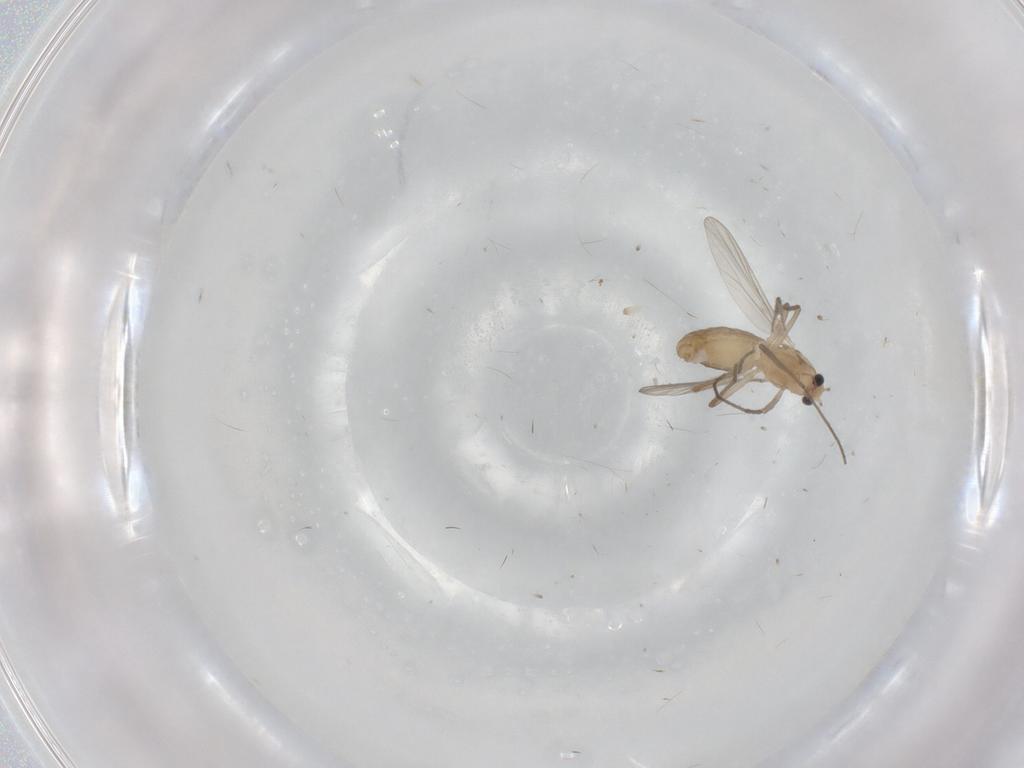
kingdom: Animalia
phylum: Arthropoda
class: Insecta
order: Diptera
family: Chironomidae
